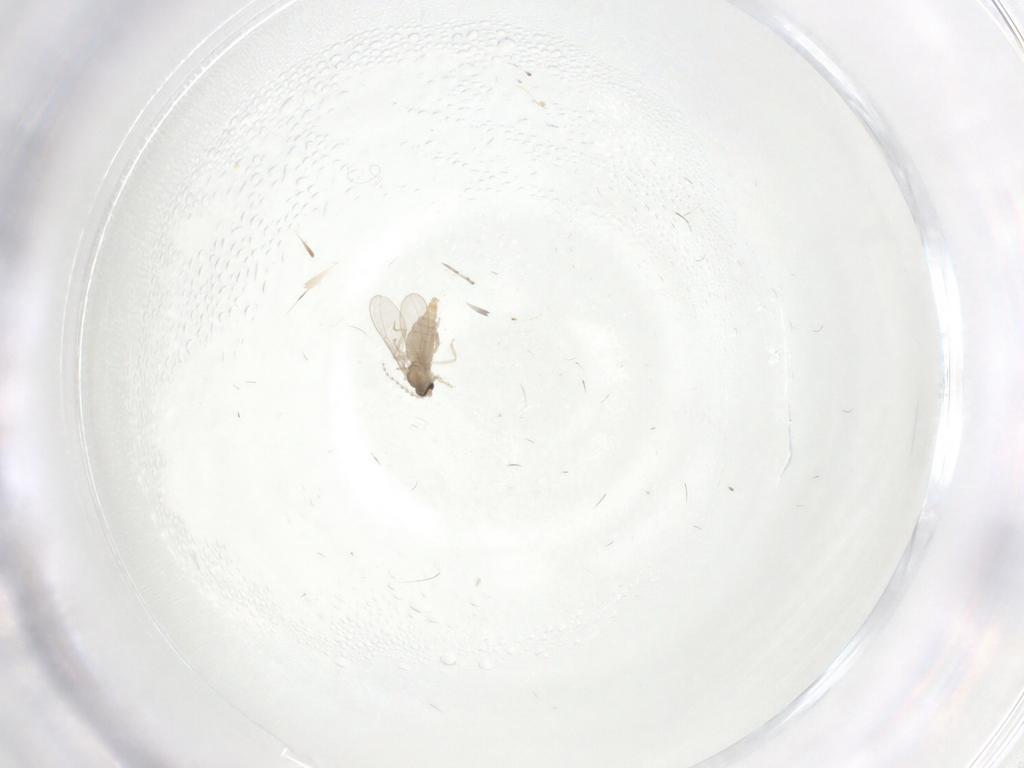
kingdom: Animalia
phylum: Arthropoda
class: Insecta
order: Diptera
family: Cecidomyiidae
